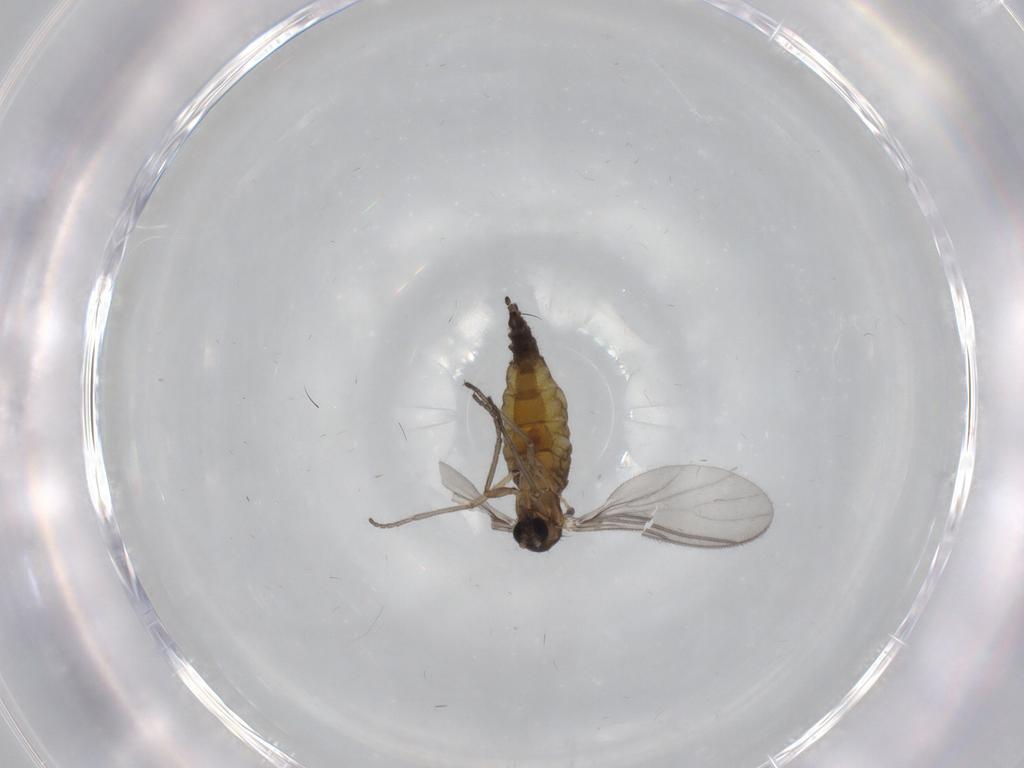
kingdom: Animalia
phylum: Arthropoda
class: Insecta
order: Diptera
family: Sciaridae
